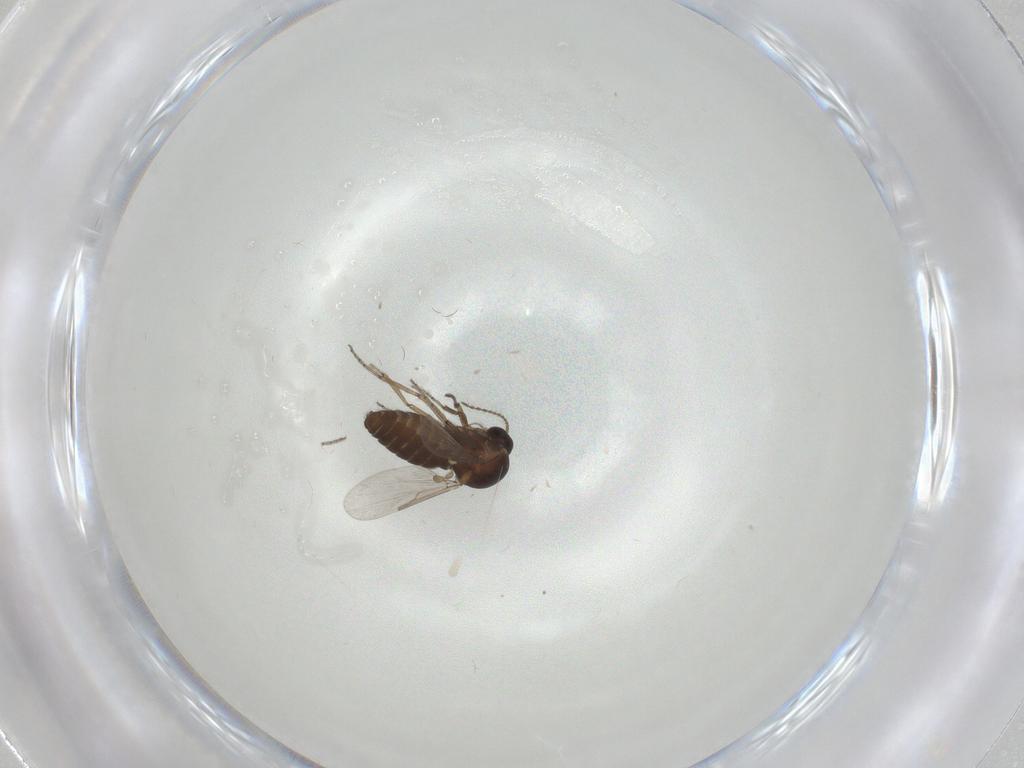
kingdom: Animalia
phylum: Arthropoda
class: Insecta
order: Diptera
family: Ceratopogonidae
